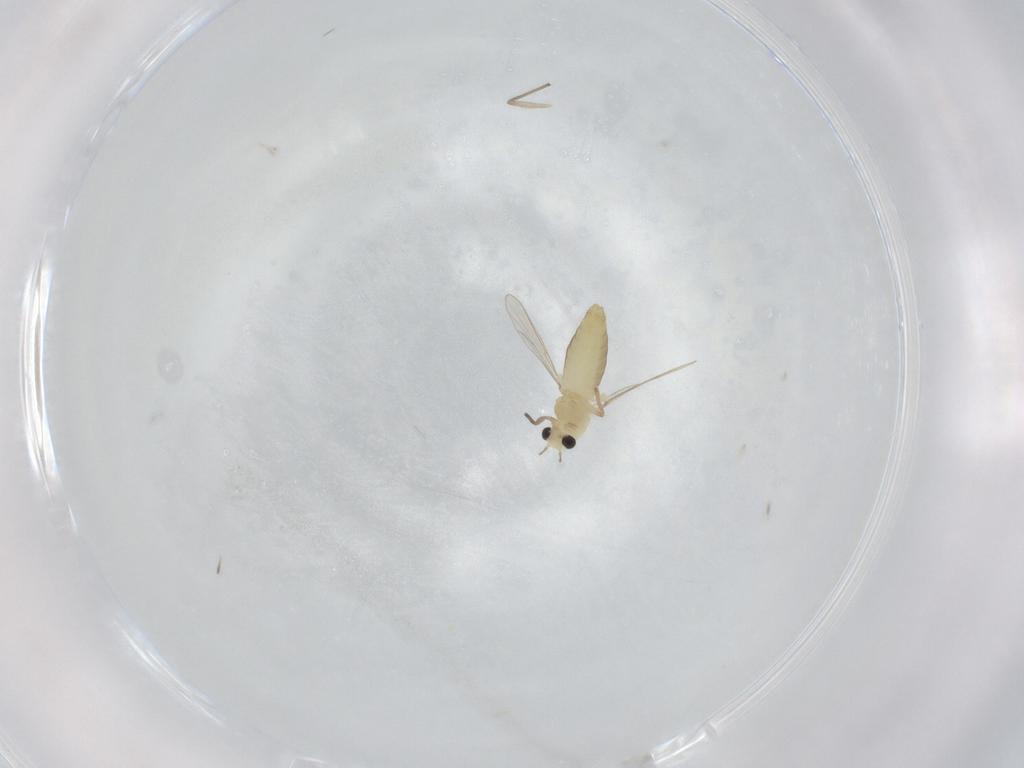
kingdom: Animalia
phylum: Arthropoda
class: Insecta
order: Diptera
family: Chironomidae
